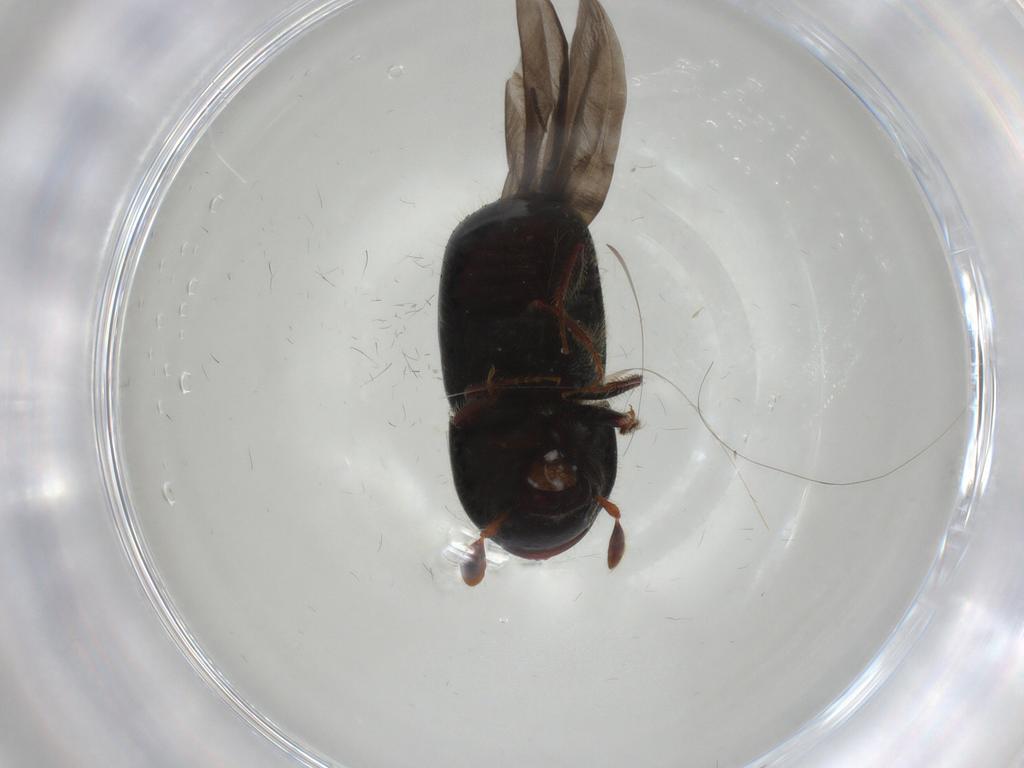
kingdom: Animalia
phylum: Arthropoda
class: Insecta
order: Coleoptera
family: Curculionidae
